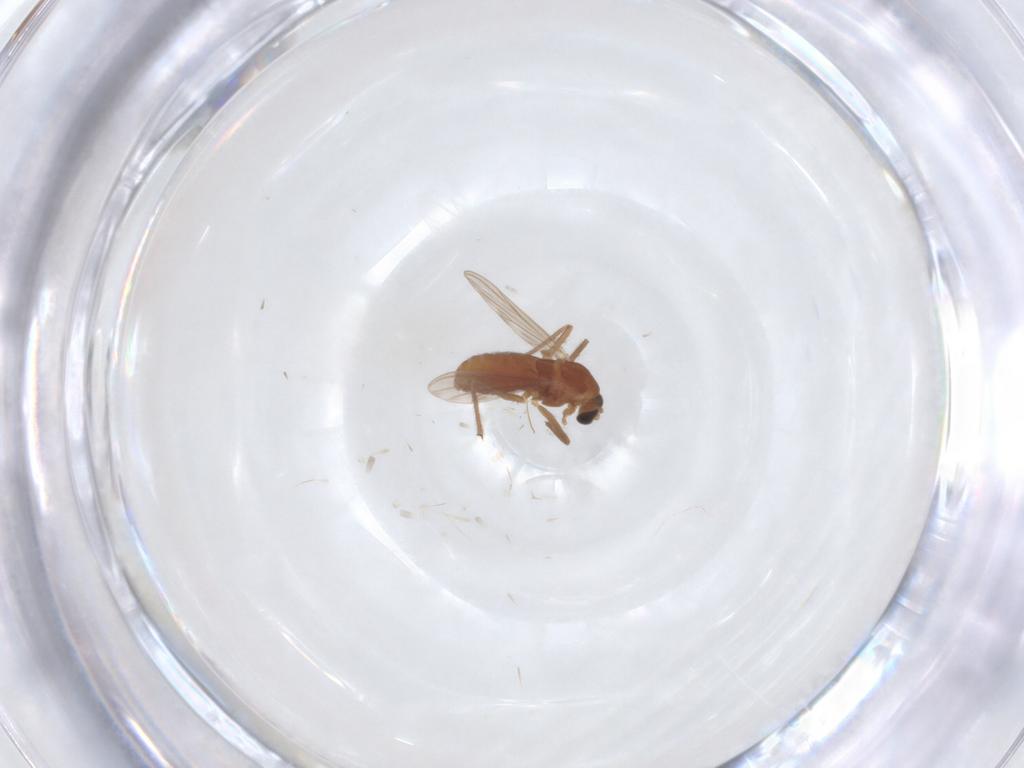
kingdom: Animalia
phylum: Arthropoda
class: Insecta
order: Diptera
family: Chironomidae
